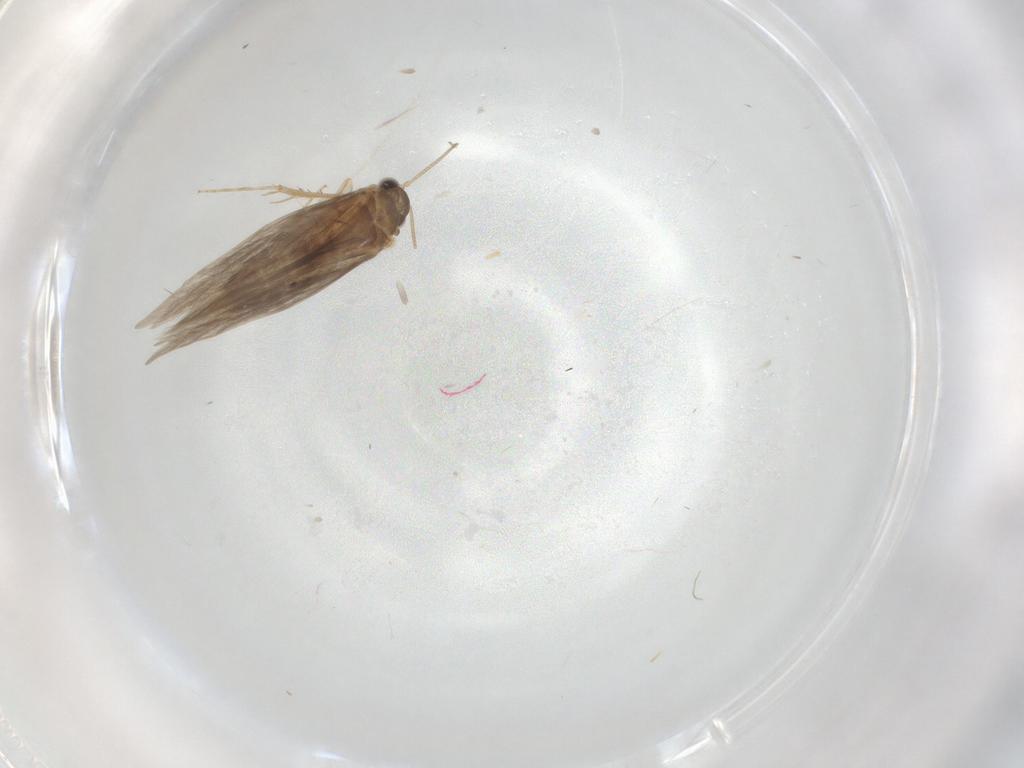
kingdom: Animalia
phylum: Arthropoda
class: Insecta
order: Trichoptera
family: Hydroptilidae
